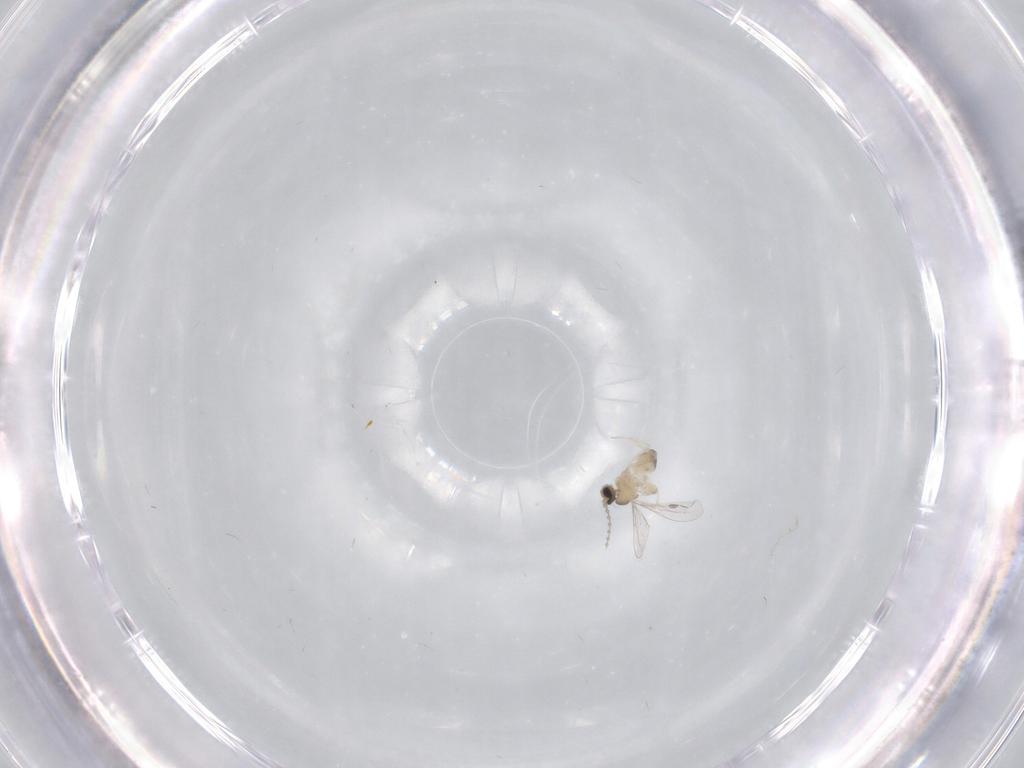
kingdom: Animalia
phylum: Arthropoda
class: Insecta
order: Diptera
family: Cecidomyiidae
